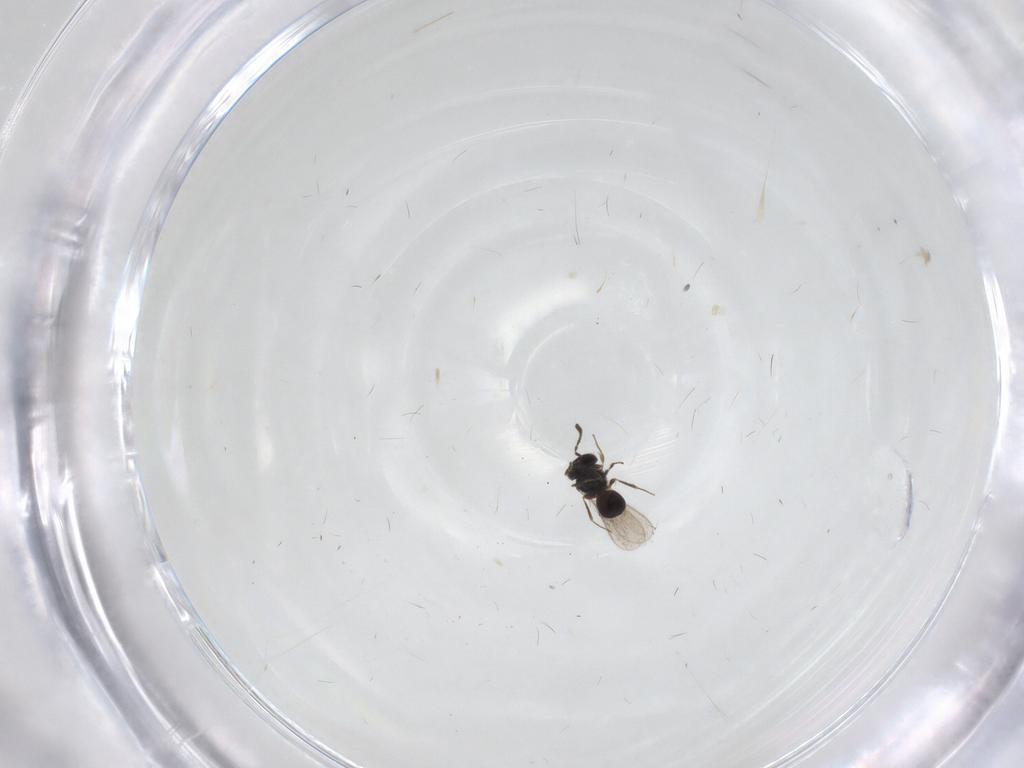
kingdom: Animalia
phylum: Arthropoda
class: Insecta
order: Hymenoptera
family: Scelionidae
